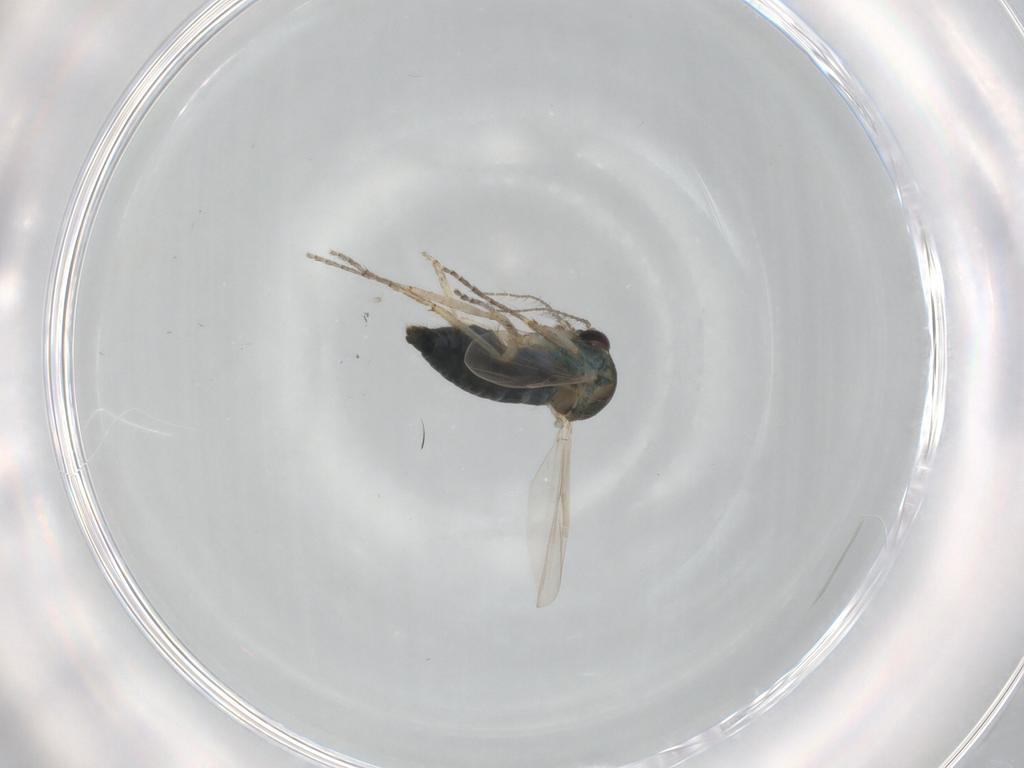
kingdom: Animalia
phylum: Arthropoda
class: Insecta
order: Diptera
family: Ceratopogonidae
